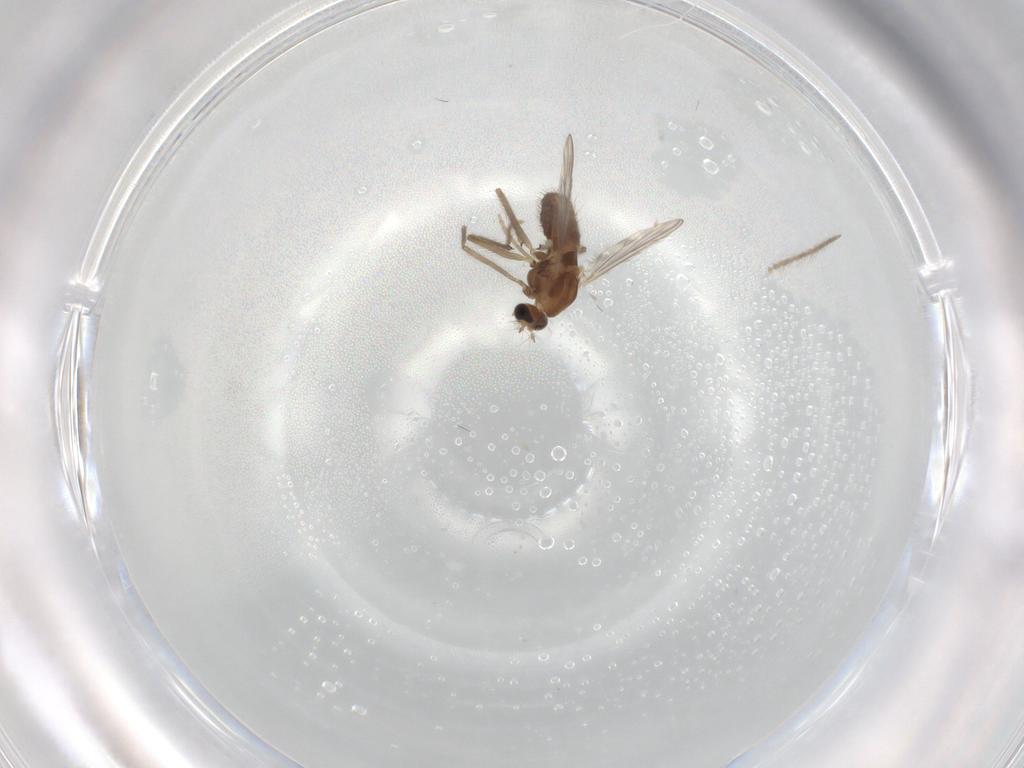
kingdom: Animalia
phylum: Arthropoda
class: Insecta
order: Diptera
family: Chironomidae
